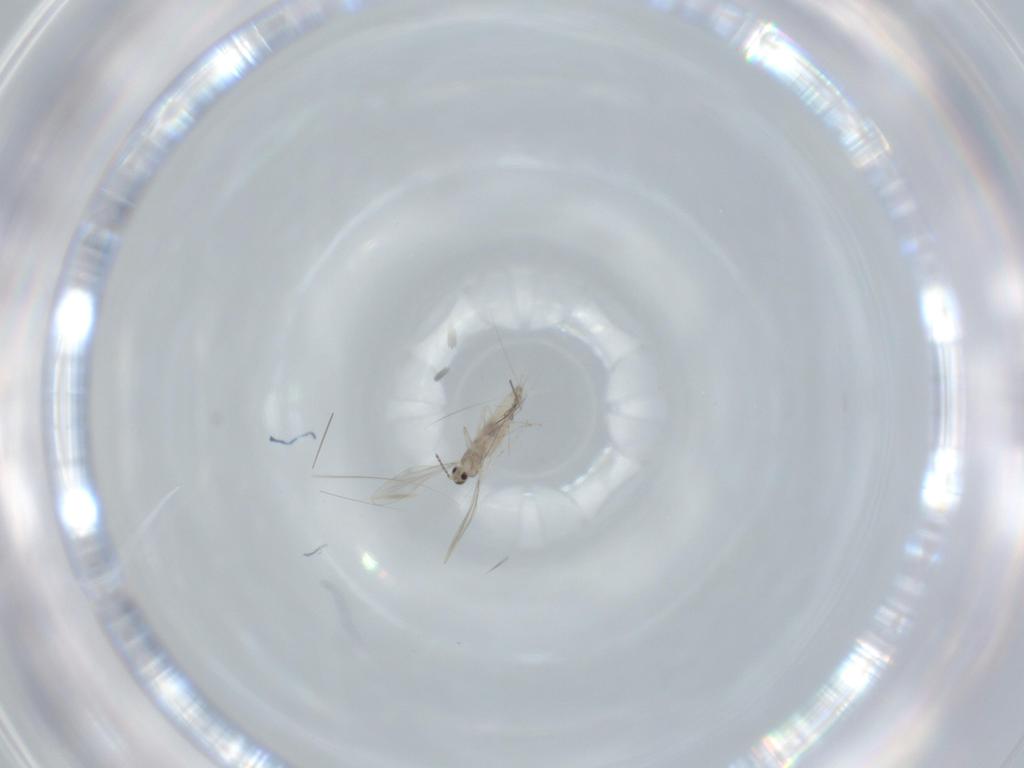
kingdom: Animalia
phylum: Arthropoda
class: Insecta
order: Diptera
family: Cecidomyiidae
